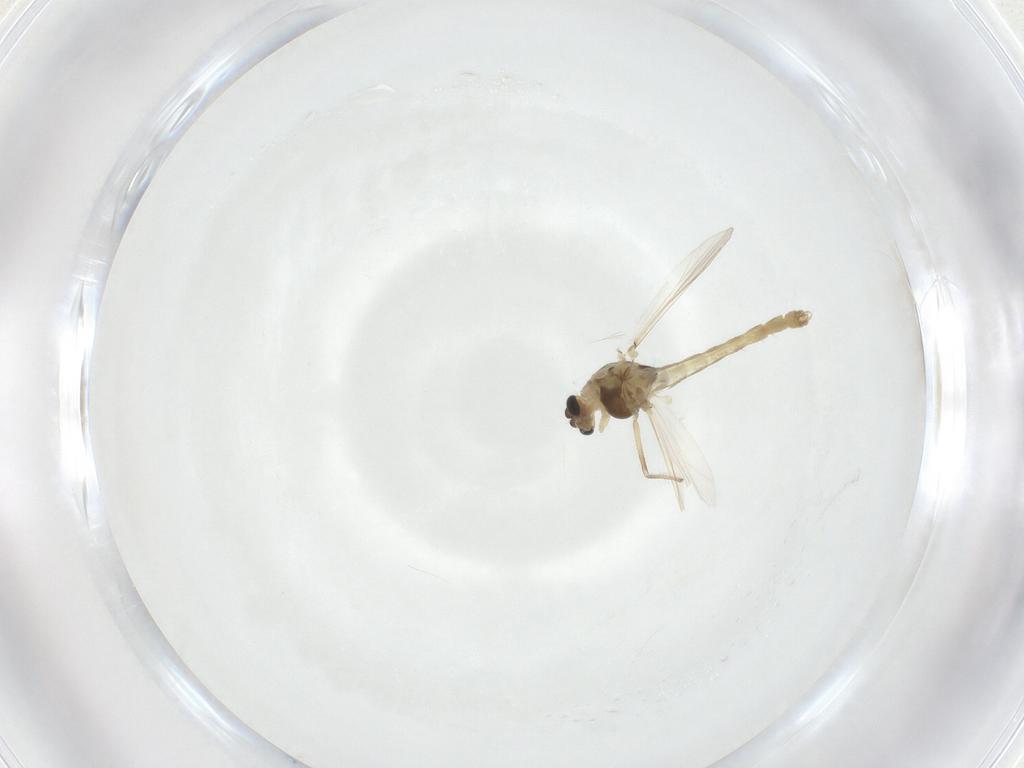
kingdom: Animalia
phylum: Arthropoda
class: Insecta
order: Diptera
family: Chironomidae
